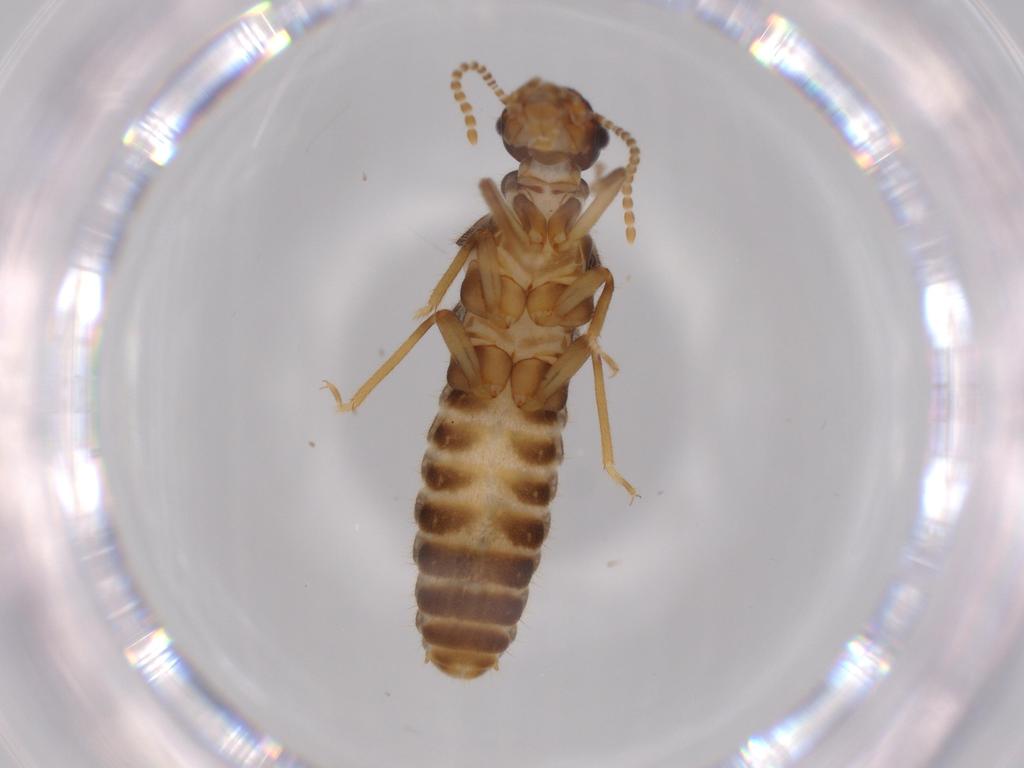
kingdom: Animalia
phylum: Arthropoda
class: Insecta
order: Blattodea
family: Termitidae
